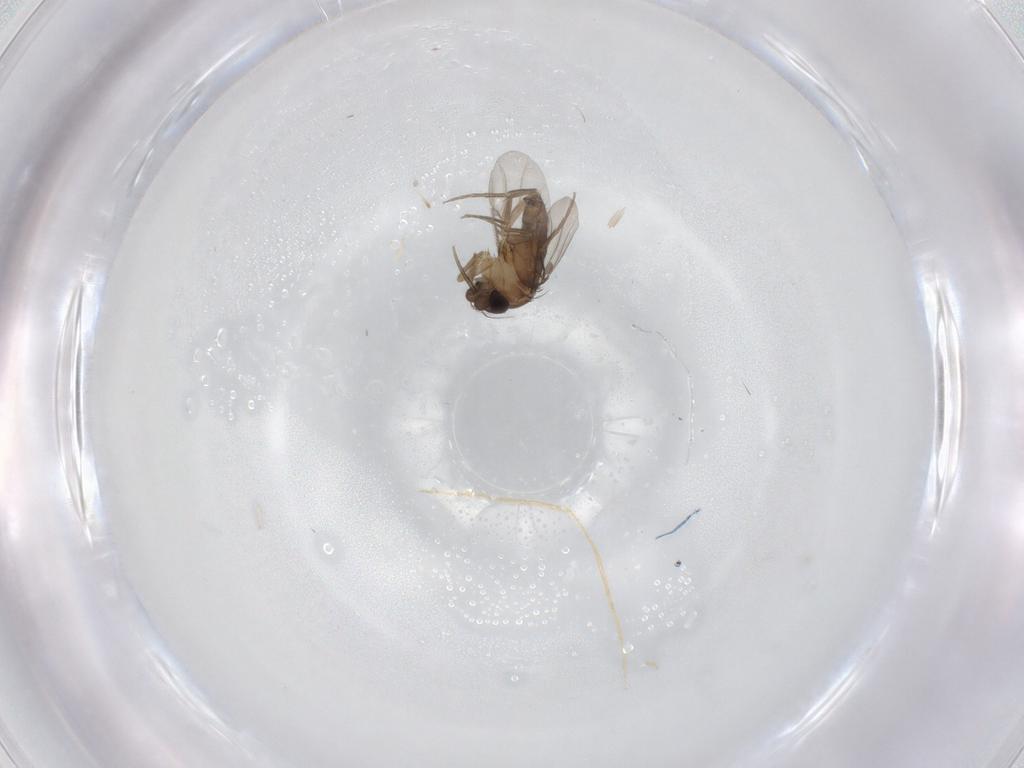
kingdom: Animalia
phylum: Arthropoda
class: Insecta
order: Diptera
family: Phoridae
